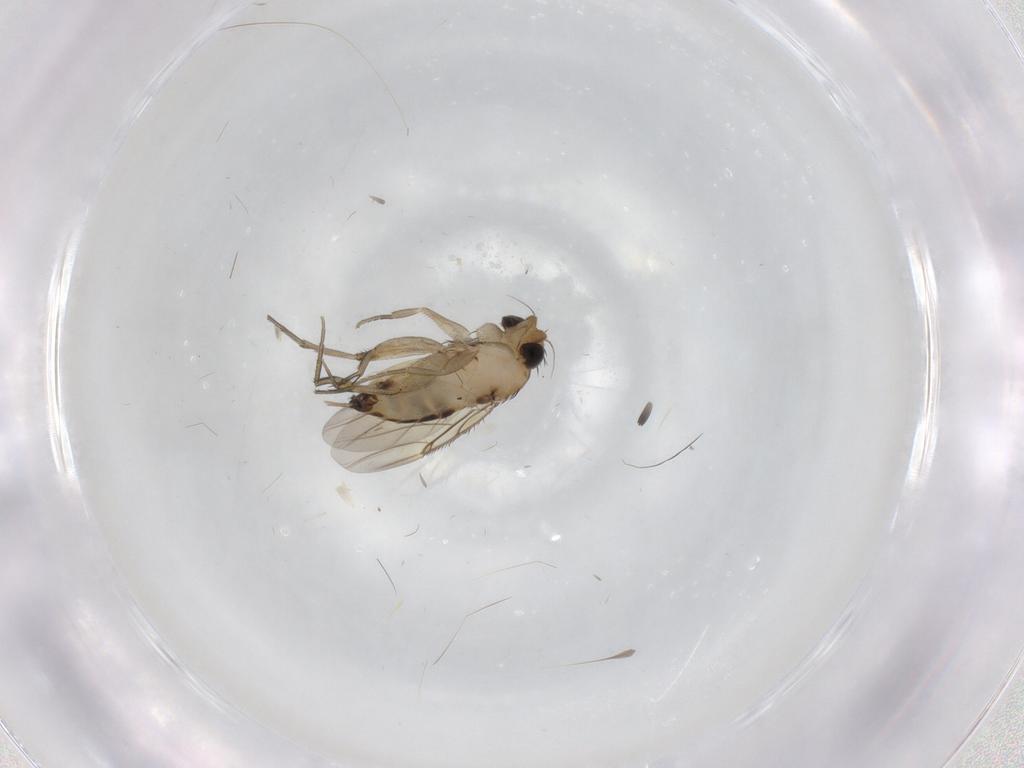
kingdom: Animalia
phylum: Arthropoda
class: Insecta
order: Diptera
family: Phoridae
